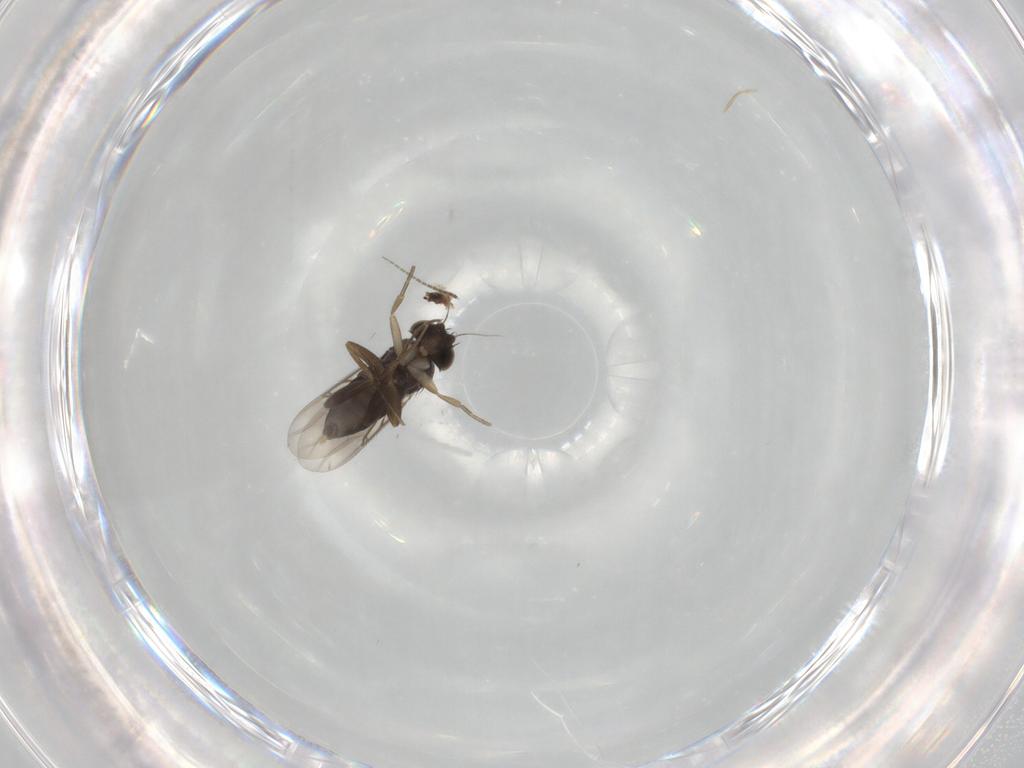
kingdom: Animalia
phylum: Arthropoda
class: Insecta
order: Diptera
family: Phoridae
